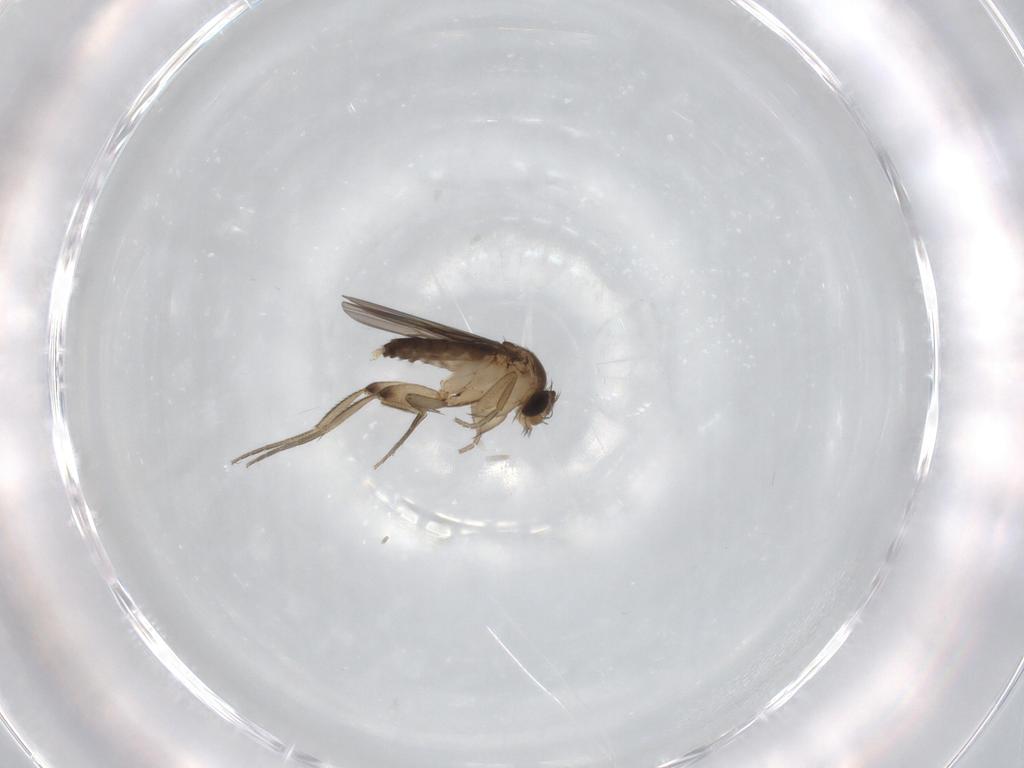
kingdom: Animalia
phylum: Arthropoda
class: Insecta
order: Diptera
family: Phoridae
